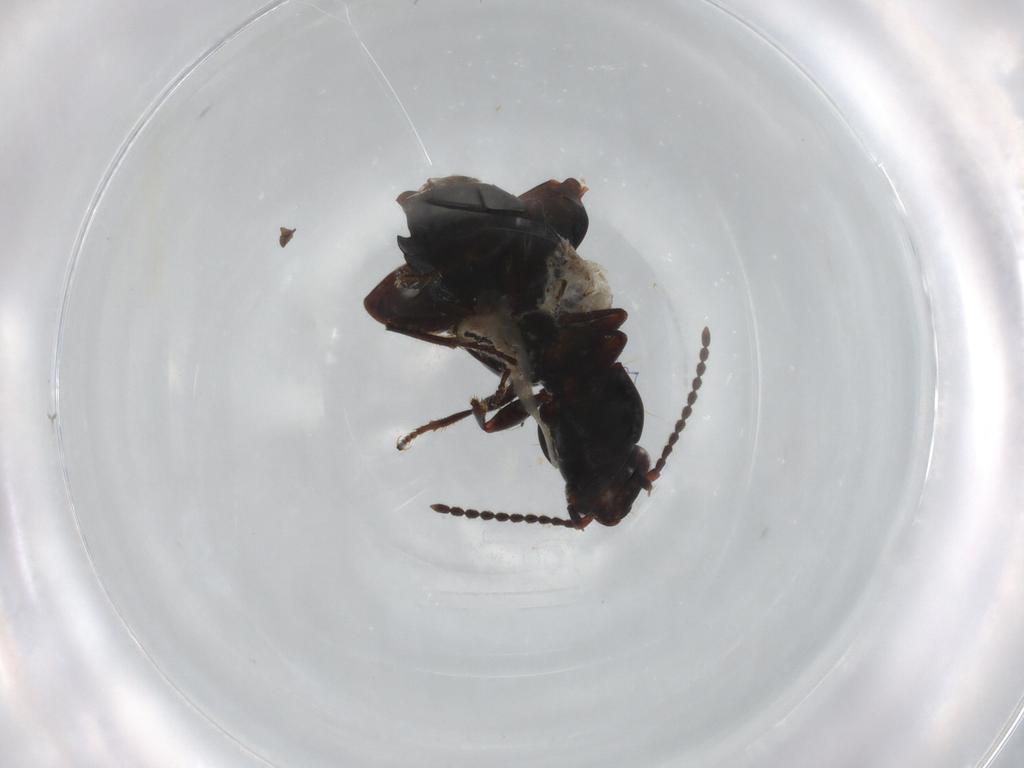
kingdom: Animalia
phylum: Arthropoda
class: Insecta
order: Coleoptera
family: Carabidae
